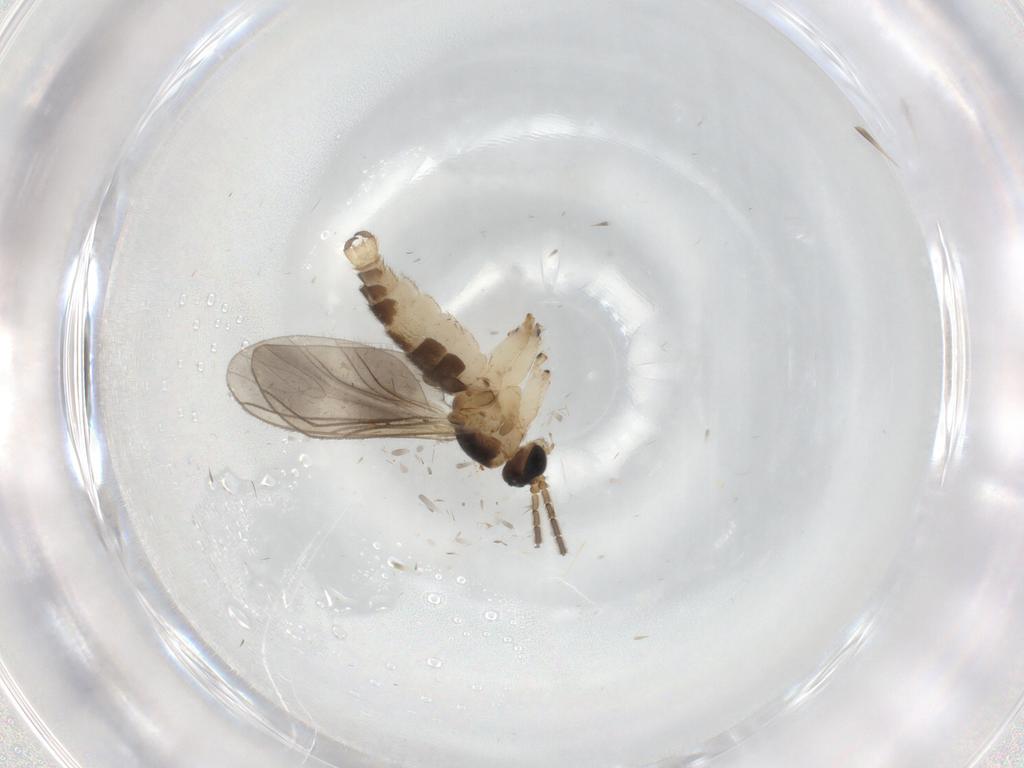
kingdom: Animalia
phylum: Arthropoda
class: Insecta
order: Diptera
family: Sciaridae
